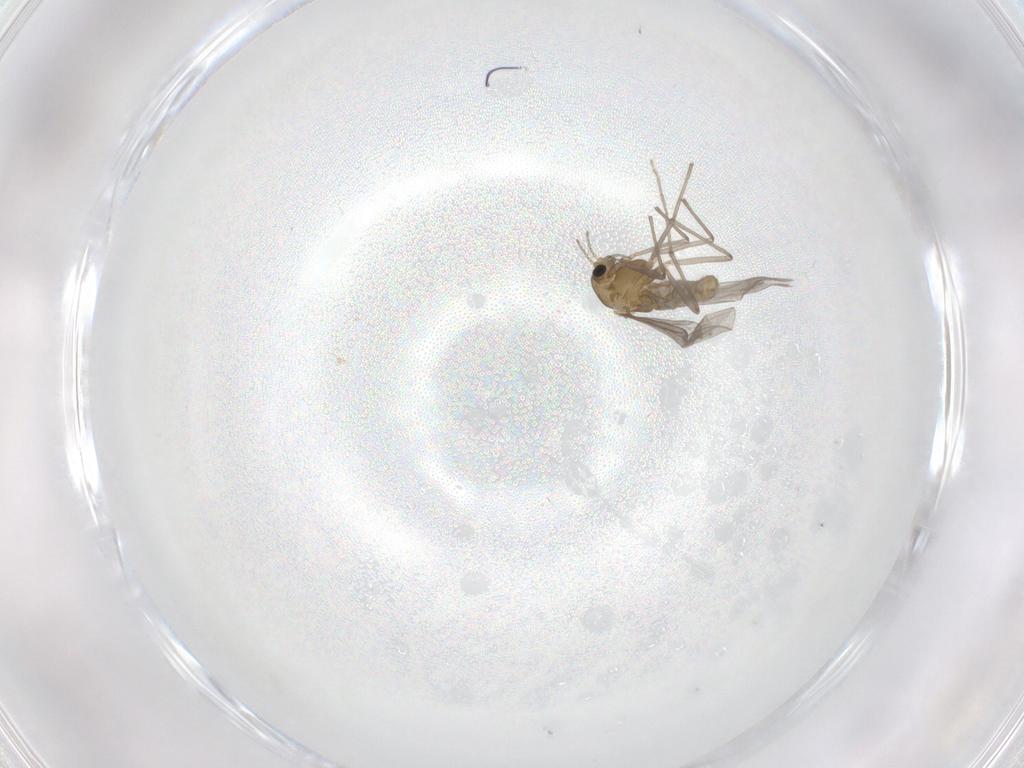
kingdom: Animalia
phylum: Arthropoda
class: Insecta
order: Diptera
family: Chironomidae
